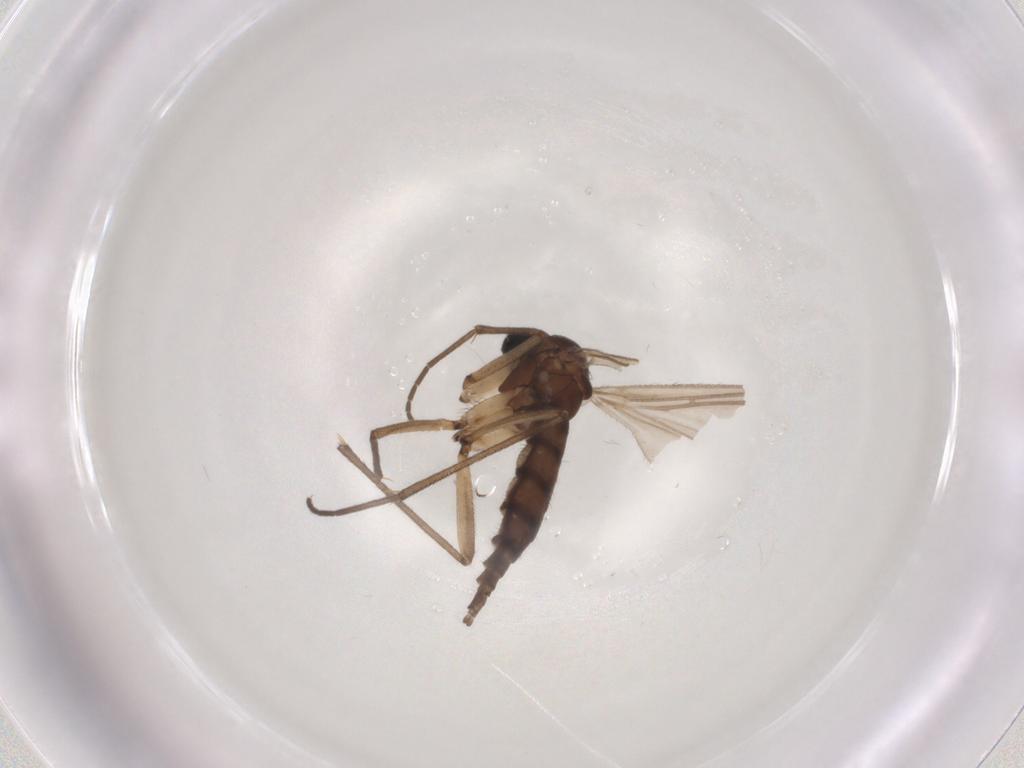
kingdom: Animalia
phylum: Arthropoda
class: Insecta
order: Diptera
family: Sciaridae
